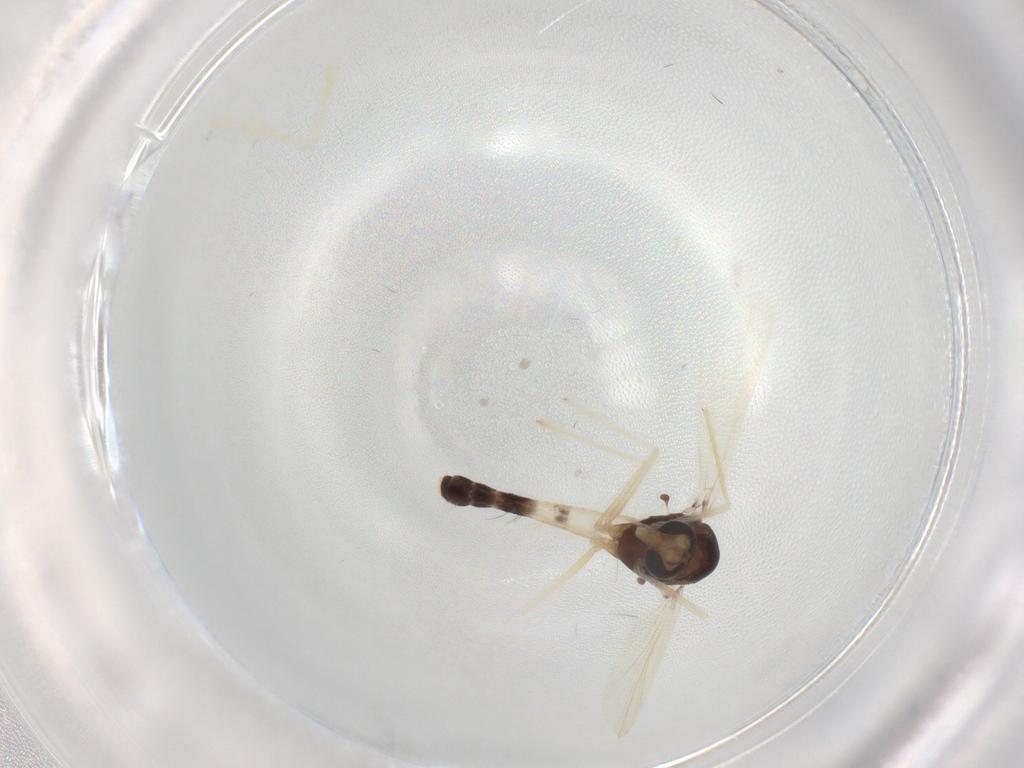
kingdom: Animalia
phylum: Arthropoda
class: Insecta
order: Diptera
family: Chironomidae
